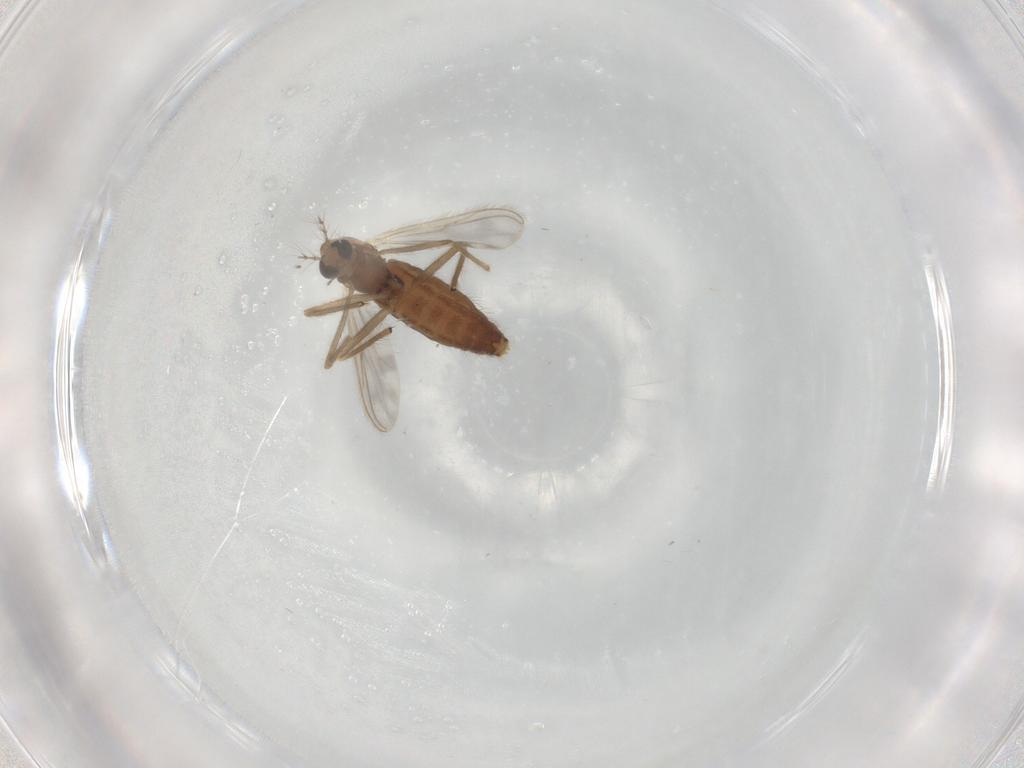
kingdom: Animalia
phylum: Arthropoda
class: Insecta
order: Diptera
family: Chironomidae
